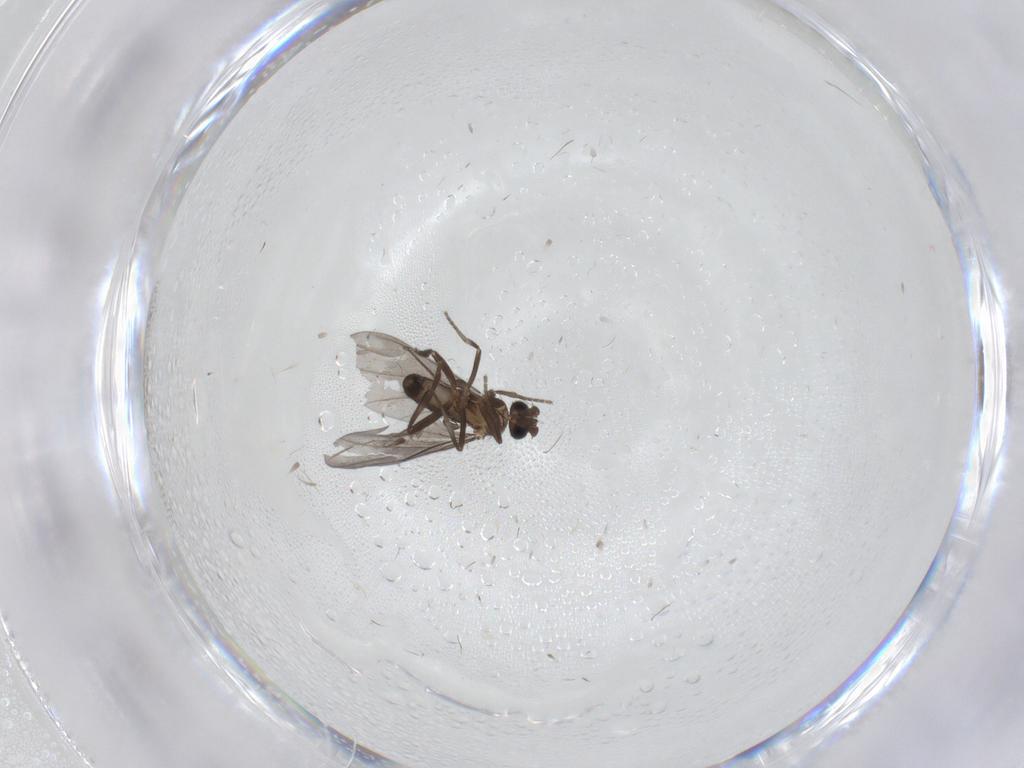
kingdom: Animalia
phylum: Arthropoda
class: Insecta
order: Diptera
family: Cecidomyiidae
